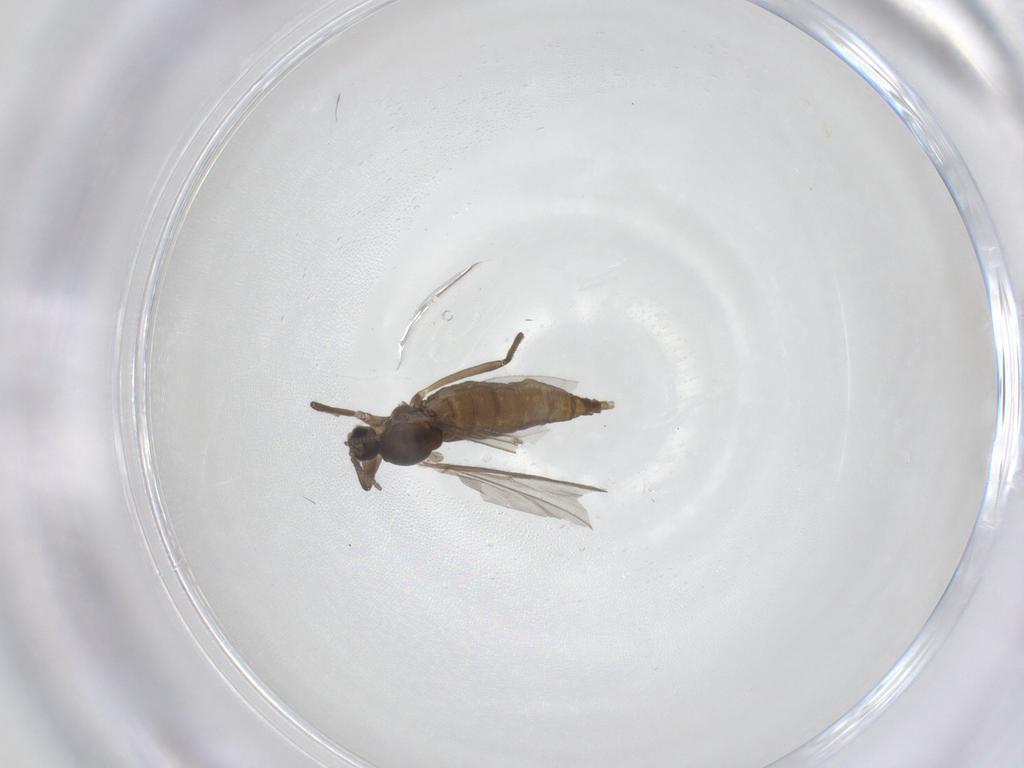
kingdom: Animalia
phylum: Arthropoda
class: Insecta
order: Diptera
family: Cecidomyiidae
